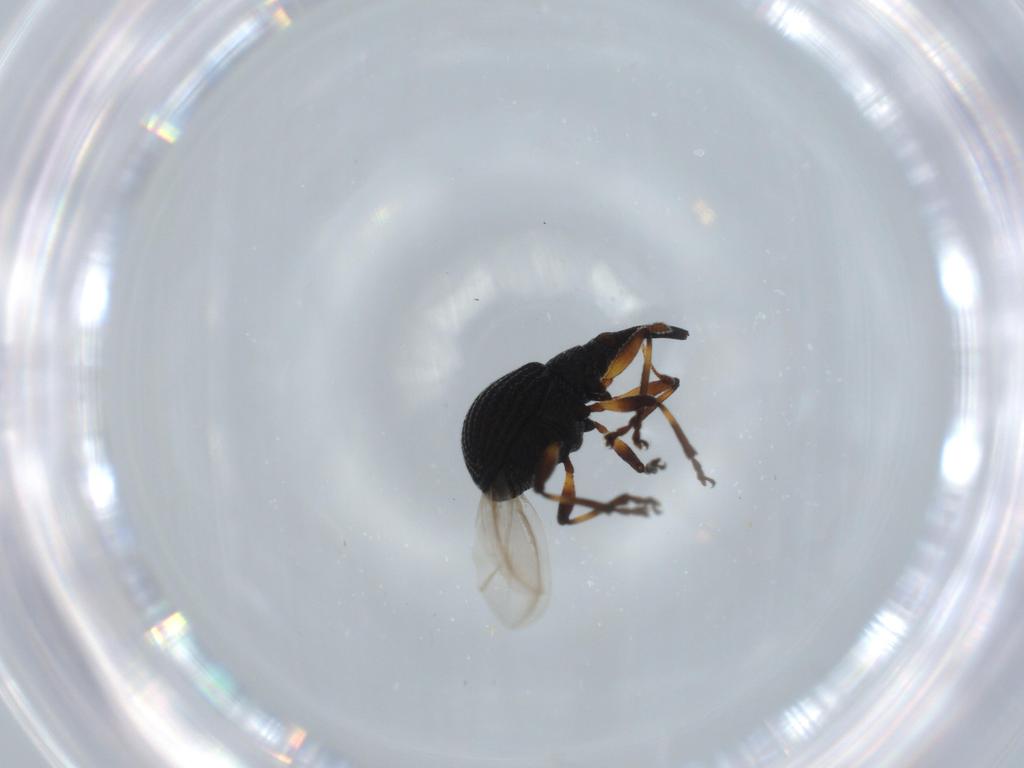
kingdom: Animalia
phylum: Arthropoda
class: Insecta
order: Coleoptera
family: Brentidae
